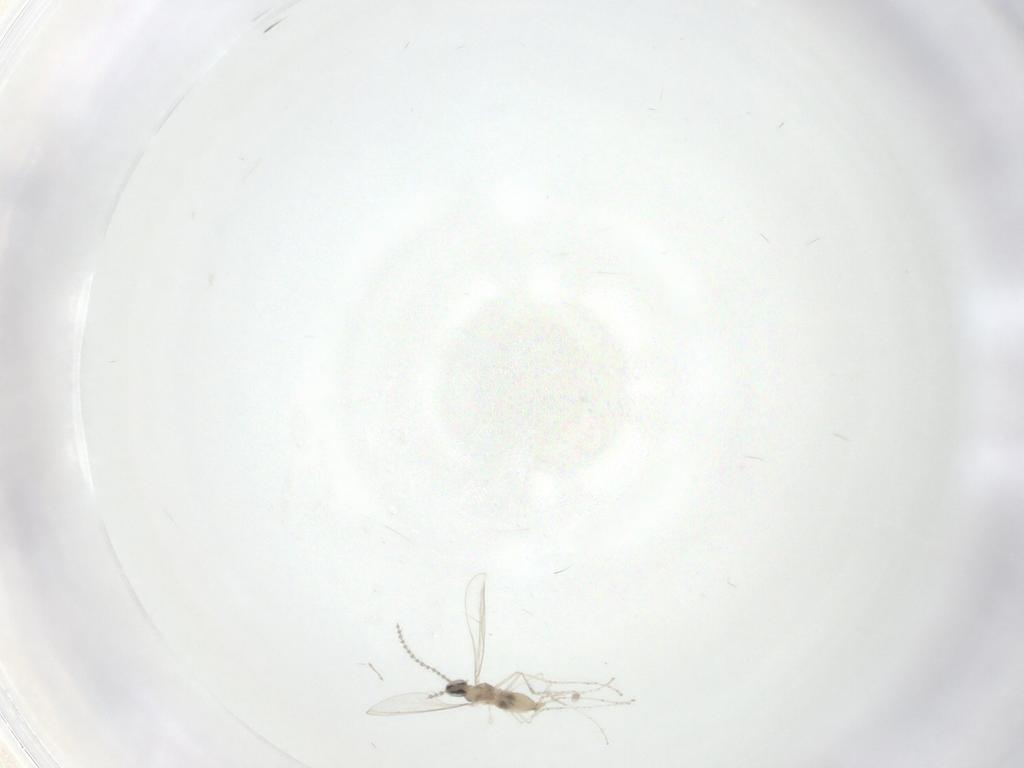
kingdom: Animalia
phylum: Arthropoda
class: Insecta
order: Diptera
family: Cecidomyiidae
